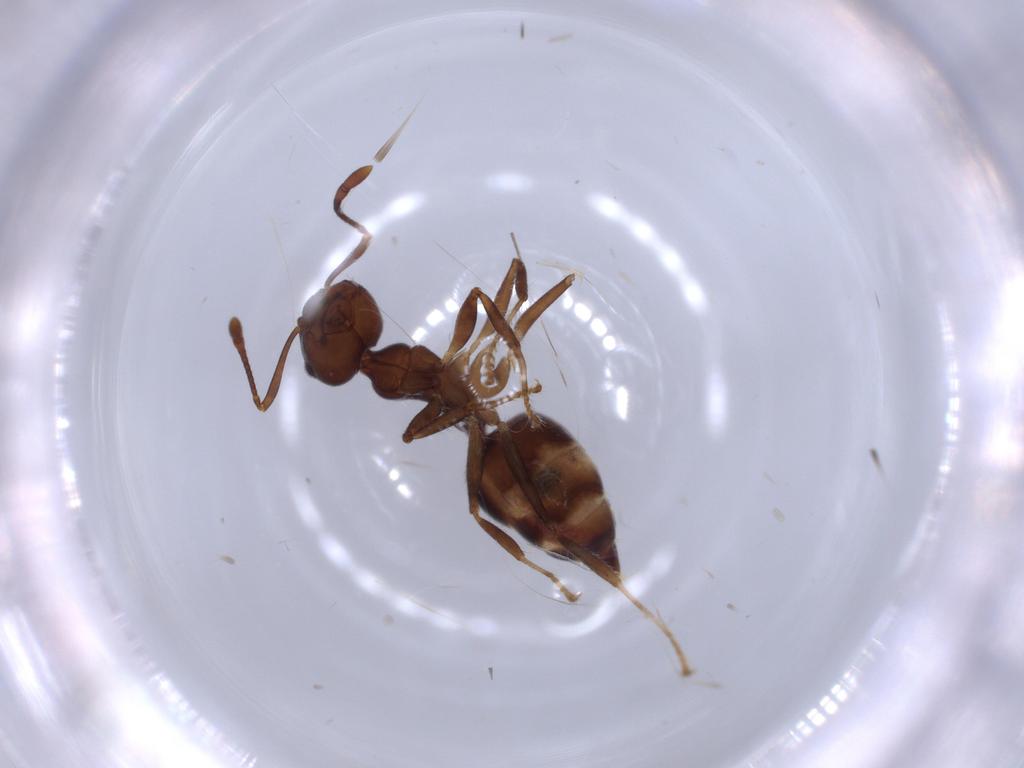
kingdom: Animalia
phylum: Arthropoda
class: Insecta
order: Hymenoptera
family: Formicidae
